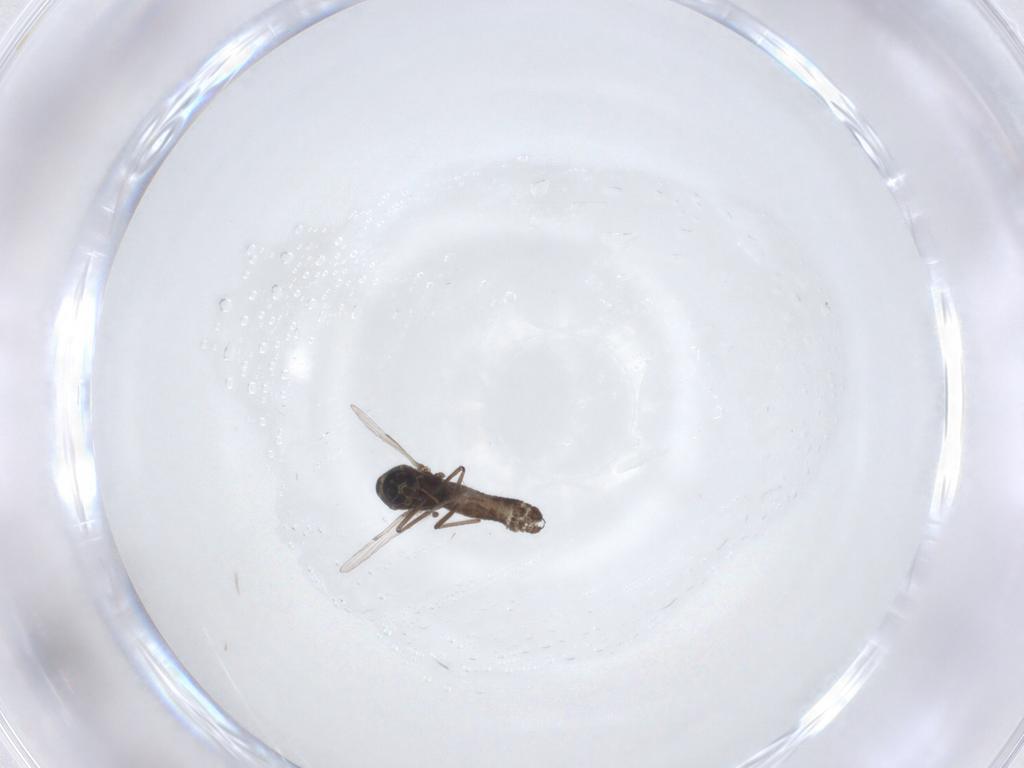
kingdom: Animalia
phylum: Arthropoda
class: Insecta
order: Diptera
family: Ceratopogonidae
